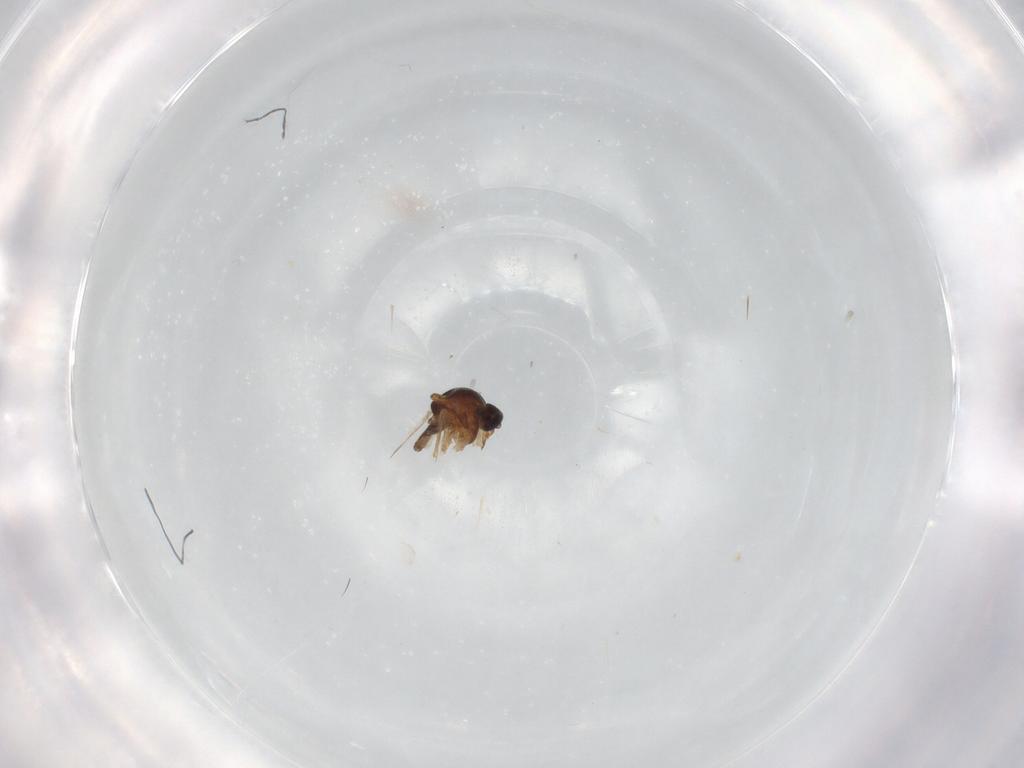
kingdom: Animalia
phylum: Arthropoda
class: Insecta
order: Diptera
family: Ceratopogonidae
